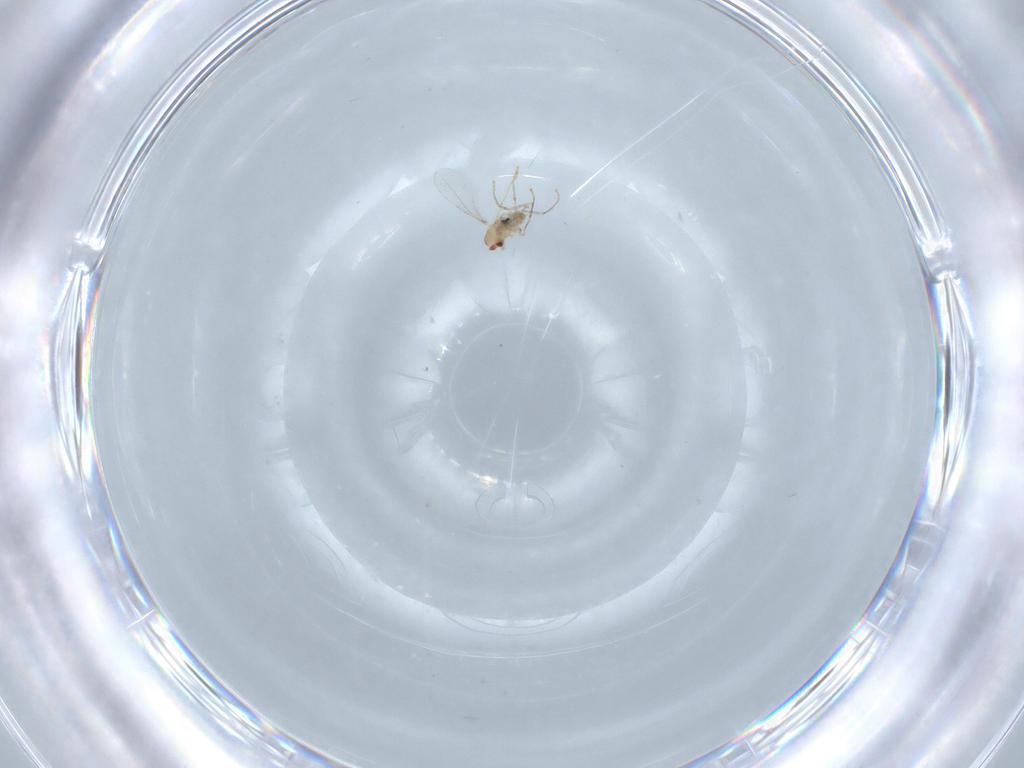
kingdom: Animalia
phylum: Arthropoda
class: Insecta
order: Diptera
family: Cecidomyiidae
